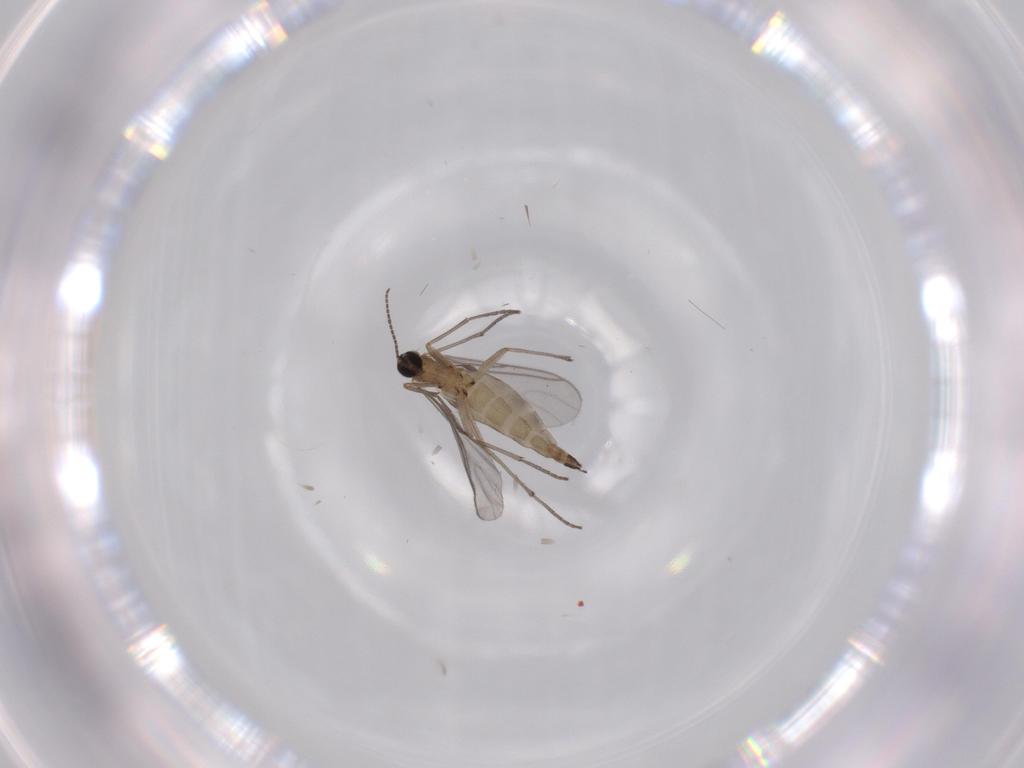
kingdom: Animalia
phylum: Arthropoda
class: Insecta
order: Diptera
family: Sciaridae
